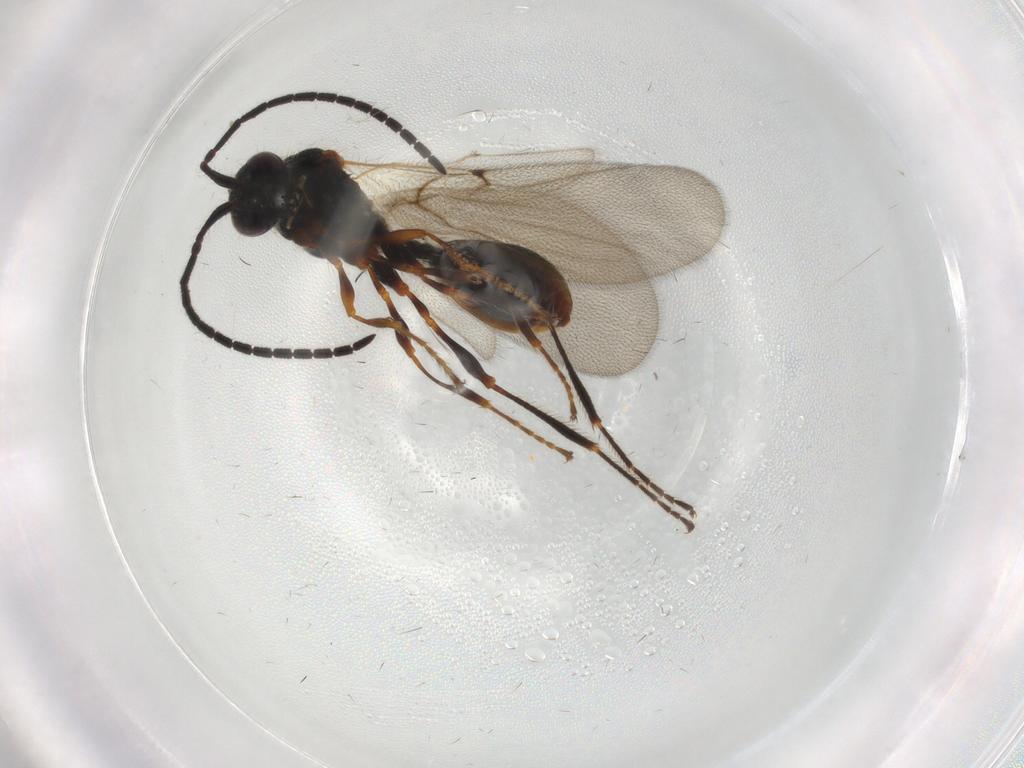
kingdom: Animalia
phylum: Arthropoda
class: Insecta
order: Hymenoptera
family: Diapriidae
